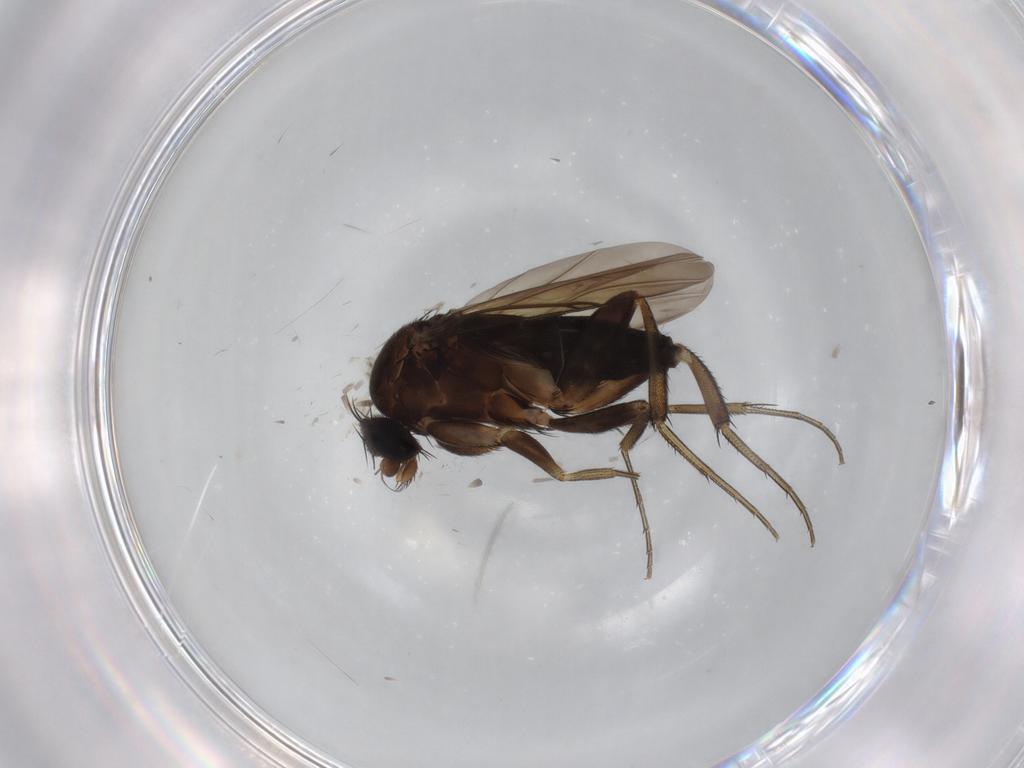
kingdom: Animalia
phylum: Arthropoda
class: Insecta
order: Diptera
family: Phoridae
